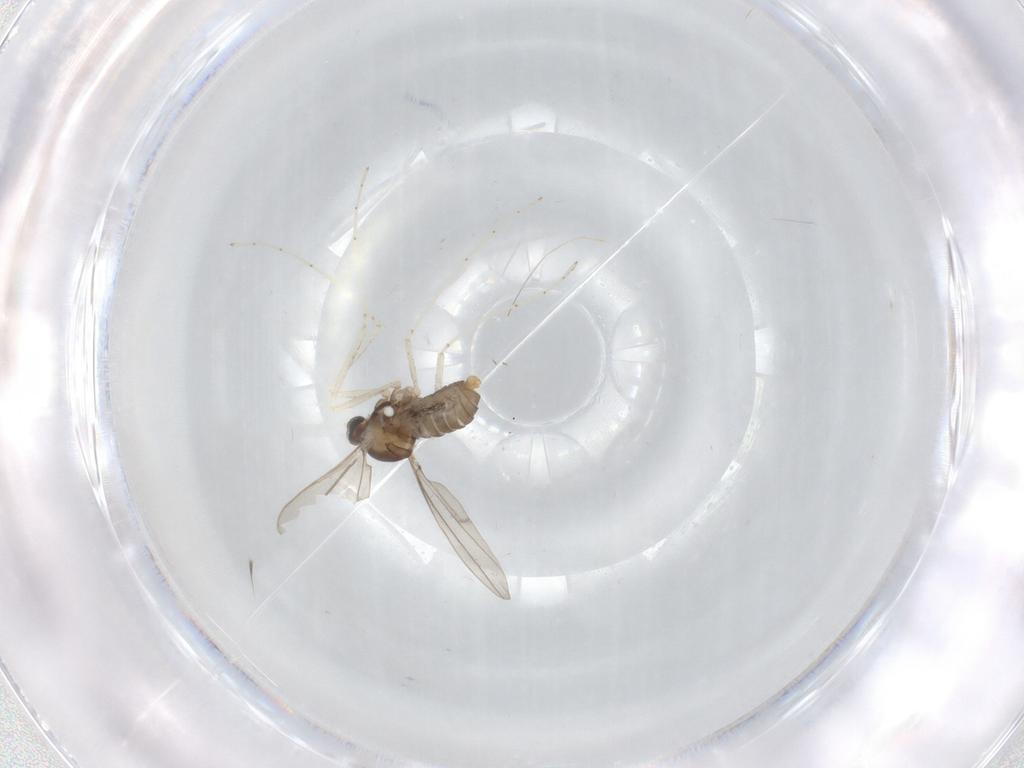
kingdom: Animalia
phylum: Arthropoda
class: Insecta
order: Diptera
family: Cecidomyiidae
